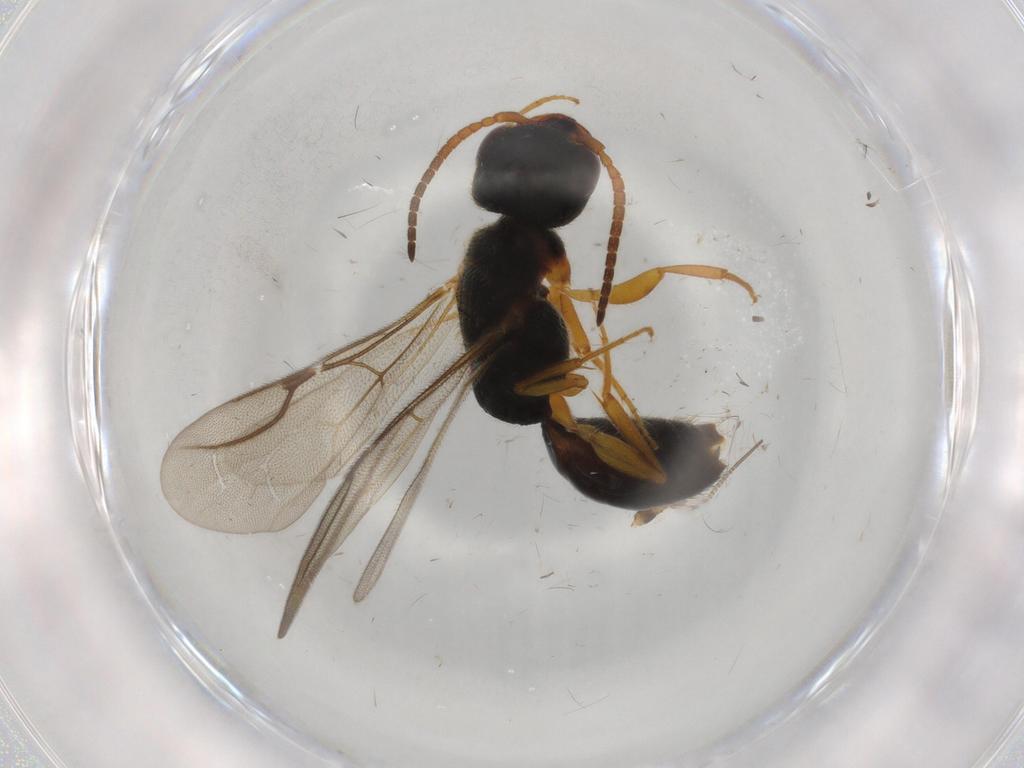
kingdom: Animalia
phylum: Arthropoda
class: Insecta
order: Hymenoptera
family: Bethylidae
